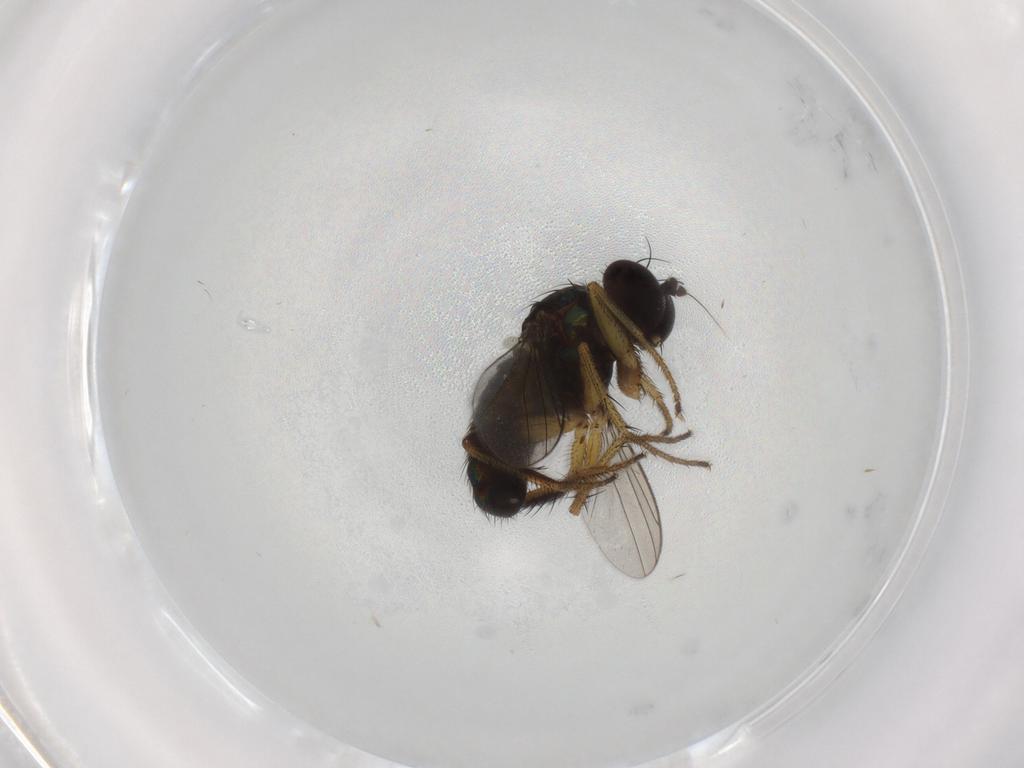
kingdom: Animalia
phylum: Arthropoda
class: Insecta
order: Diptera
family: Dolichopodidae
